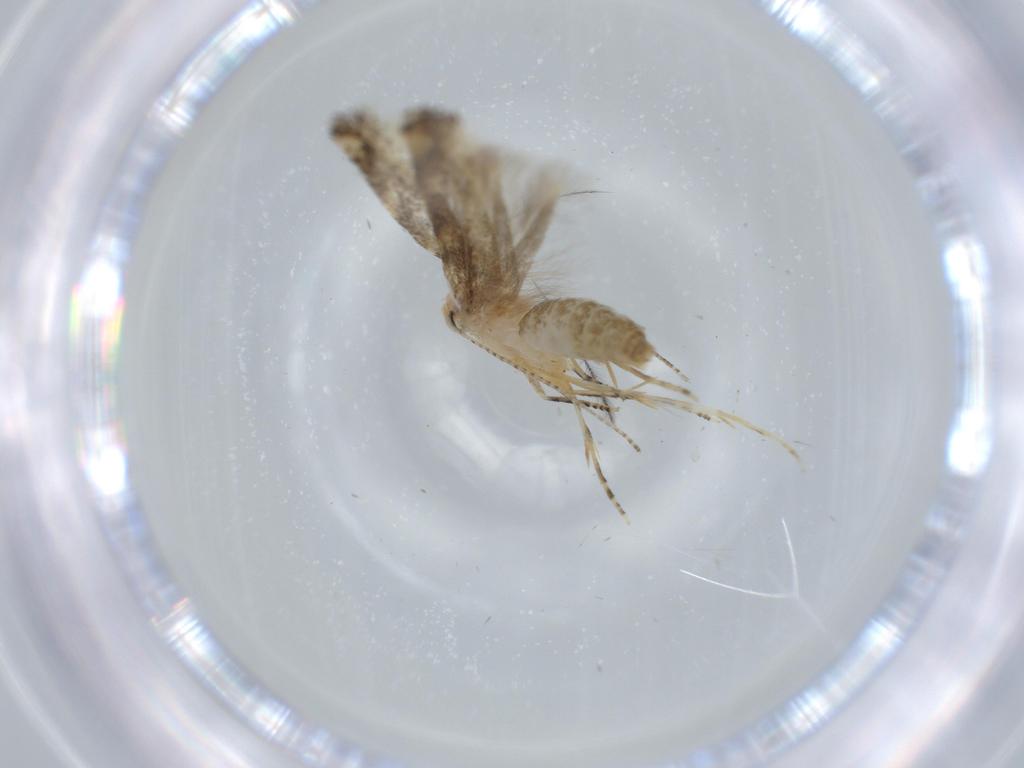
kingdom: Animalia
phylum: Arthropoda
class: Insecta
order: Lepidoptera
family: Bucculatricidae
